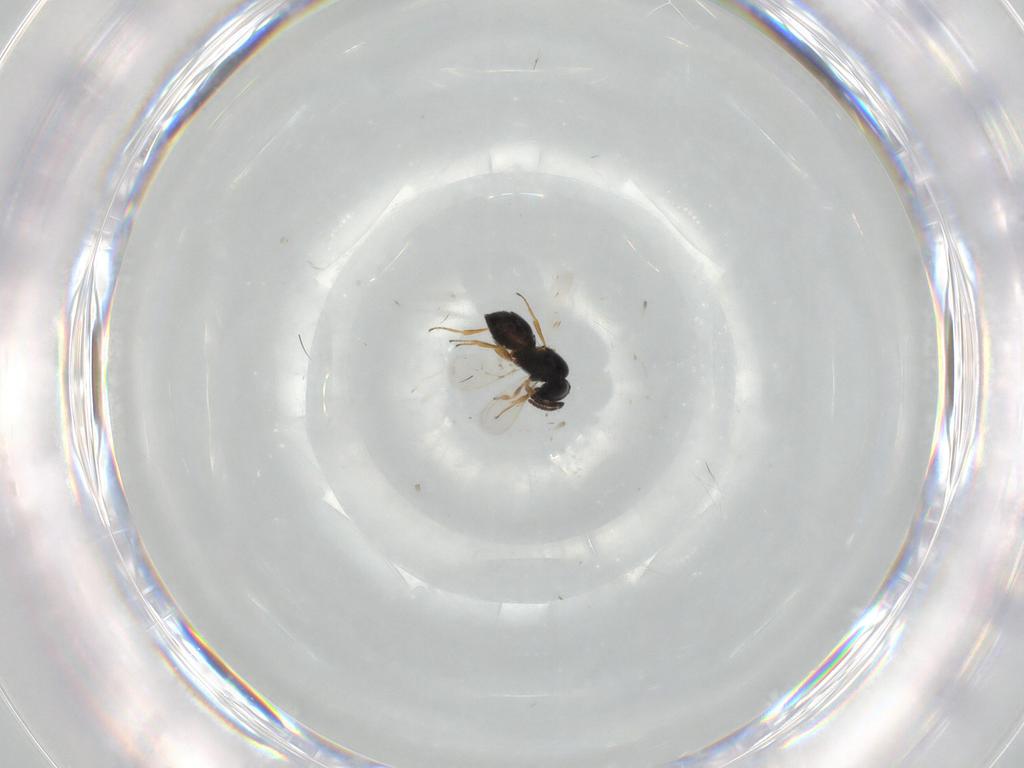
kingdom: Animalia
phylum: Arthropoda
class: Insecta
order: Hymenoptera
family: Scelionidae
